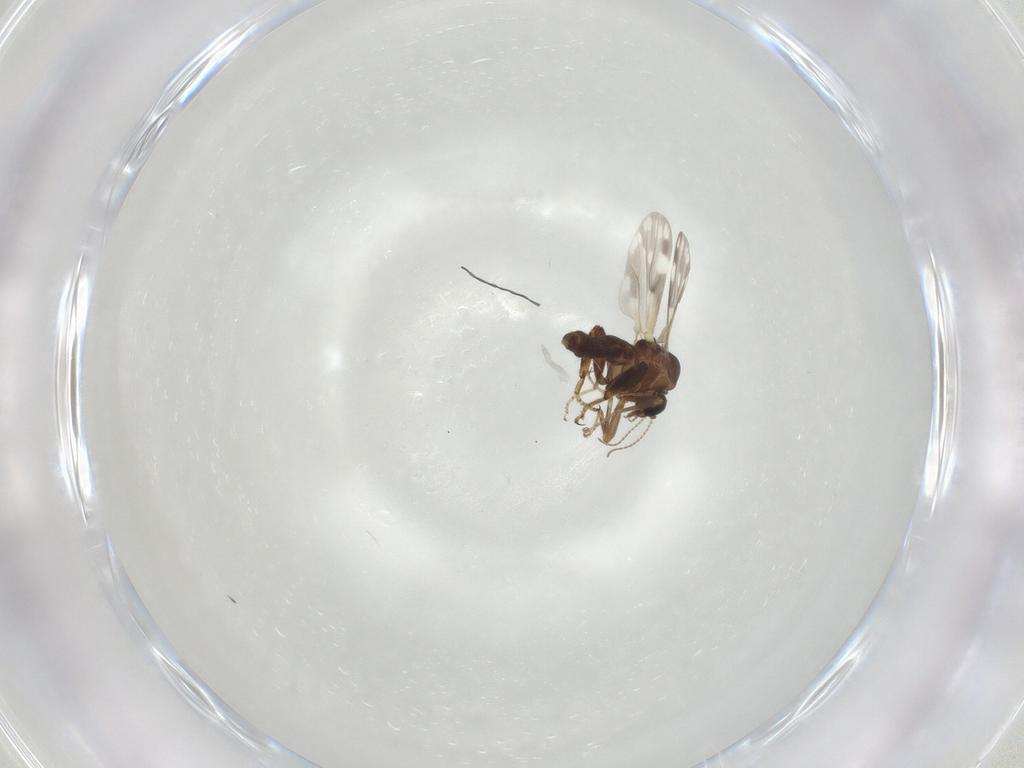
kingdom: Animalia
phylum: Arthropoda
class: Insecta
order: Diptera
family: Ceratopogonidae
